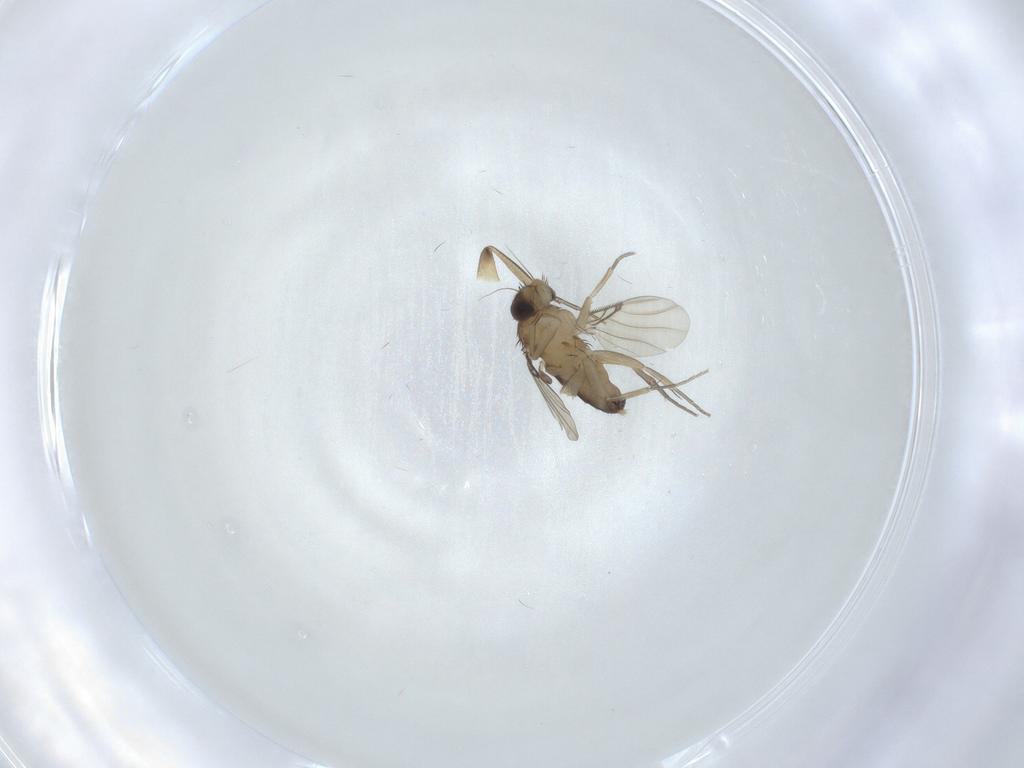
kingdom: Animalia
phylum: Arthropoda
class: Insecta
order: Diptera
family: Phoridae
